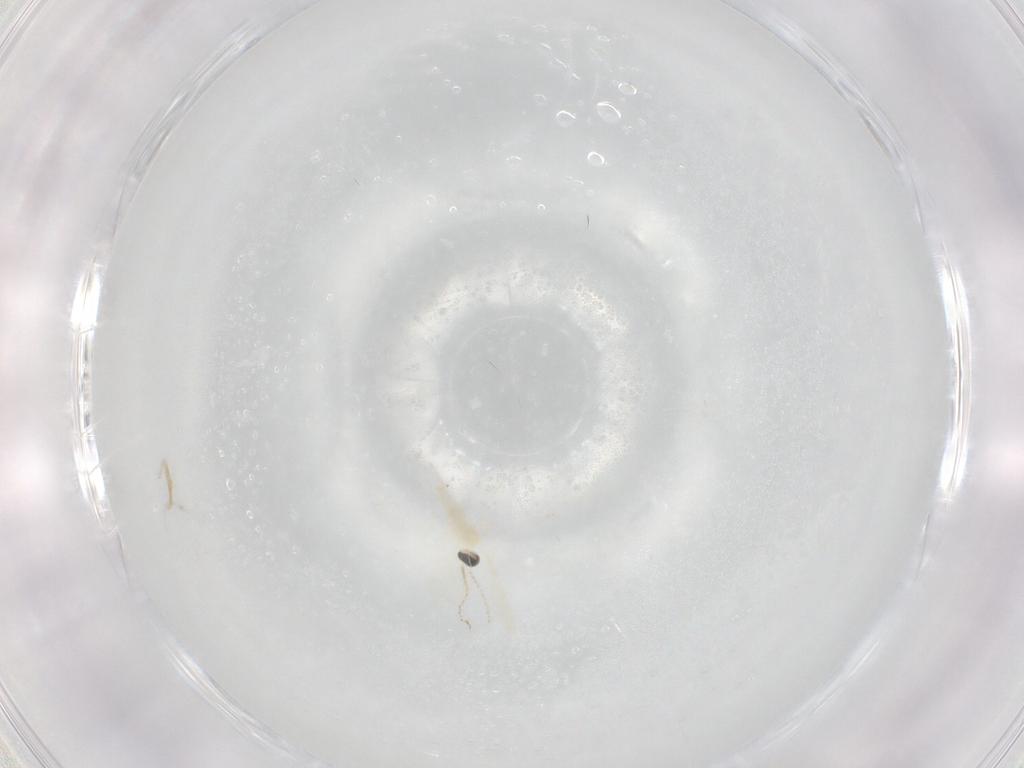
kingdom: Animalia
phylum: Arthropoda
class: Insecta
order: Diptera
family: Cecidomyiidae
